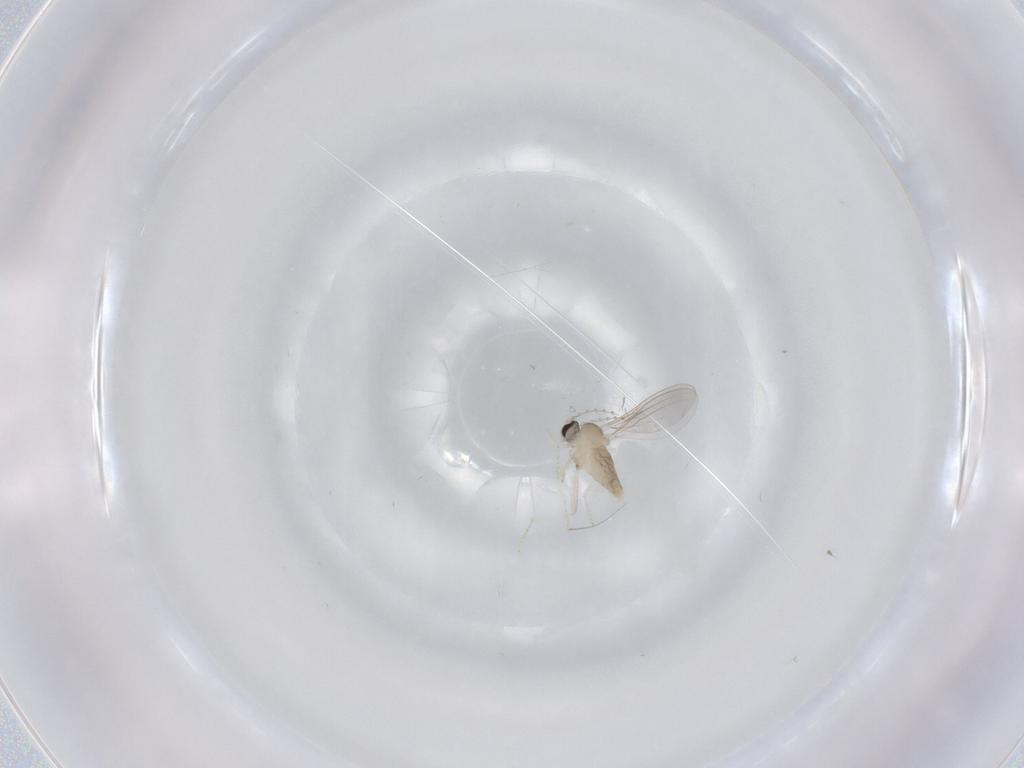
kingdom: Animalia
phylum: Arthropoda
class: Insecta
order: Diptera
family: Cecidomyiidae
